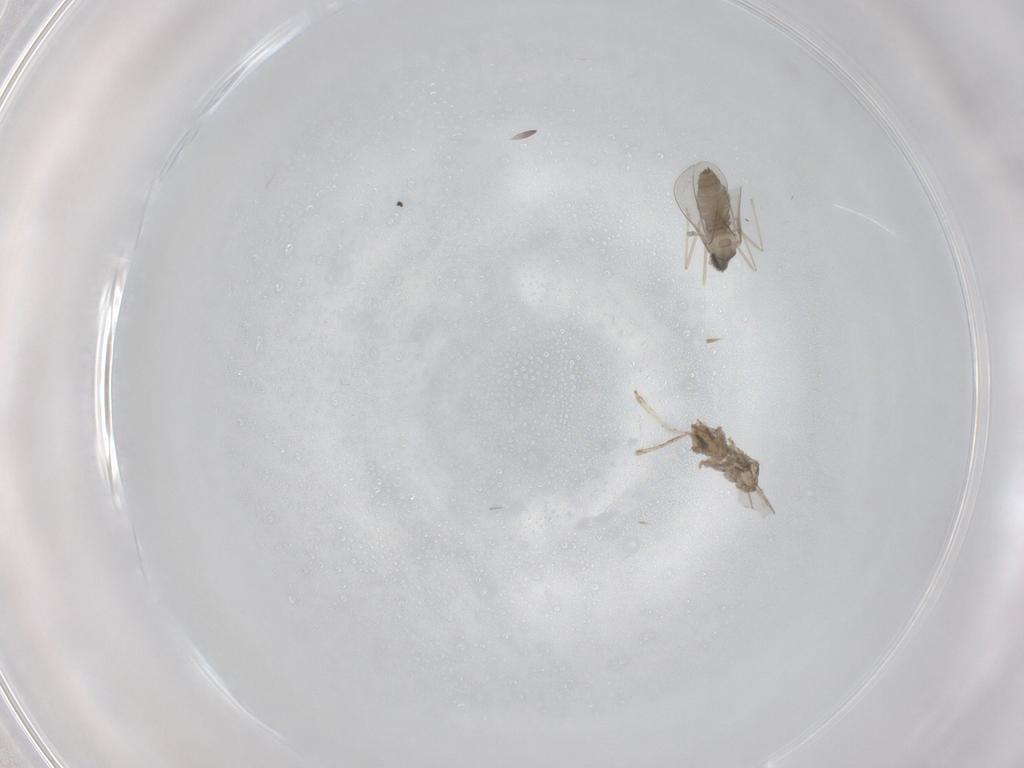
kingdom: Animalia
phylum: Arthropoda
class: Insecta
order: Diptera
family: Cecidomyiidae
